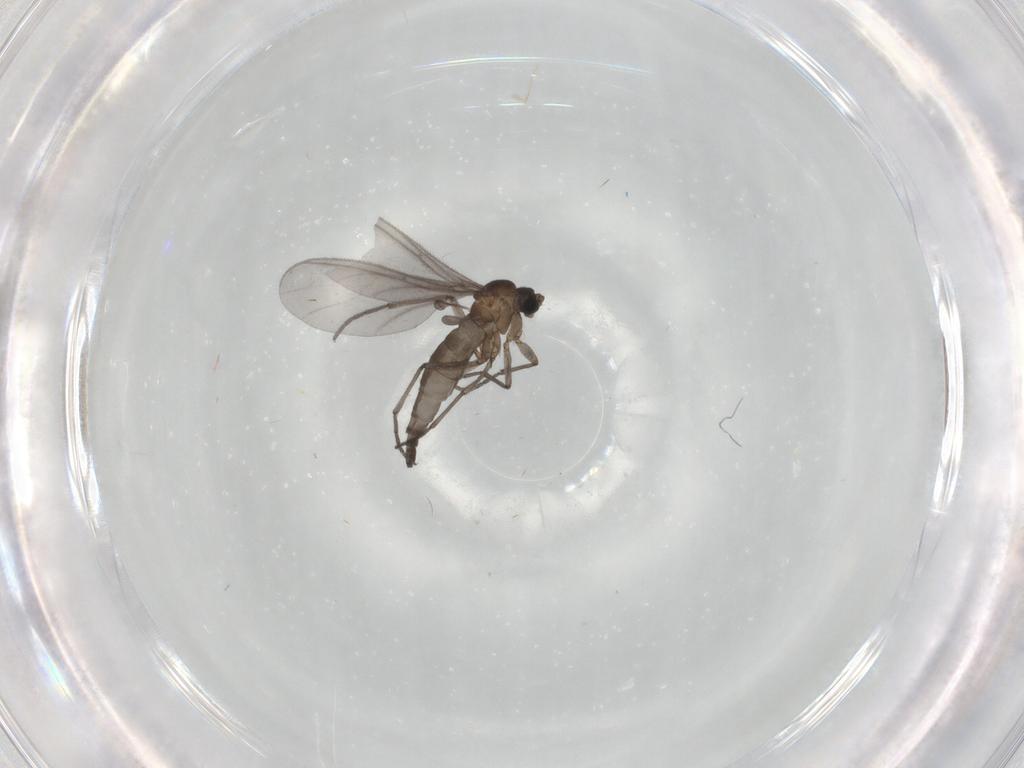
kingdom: Animalia
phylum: Arthropoda
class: Insecta
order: Diptera
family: Sciaridae
